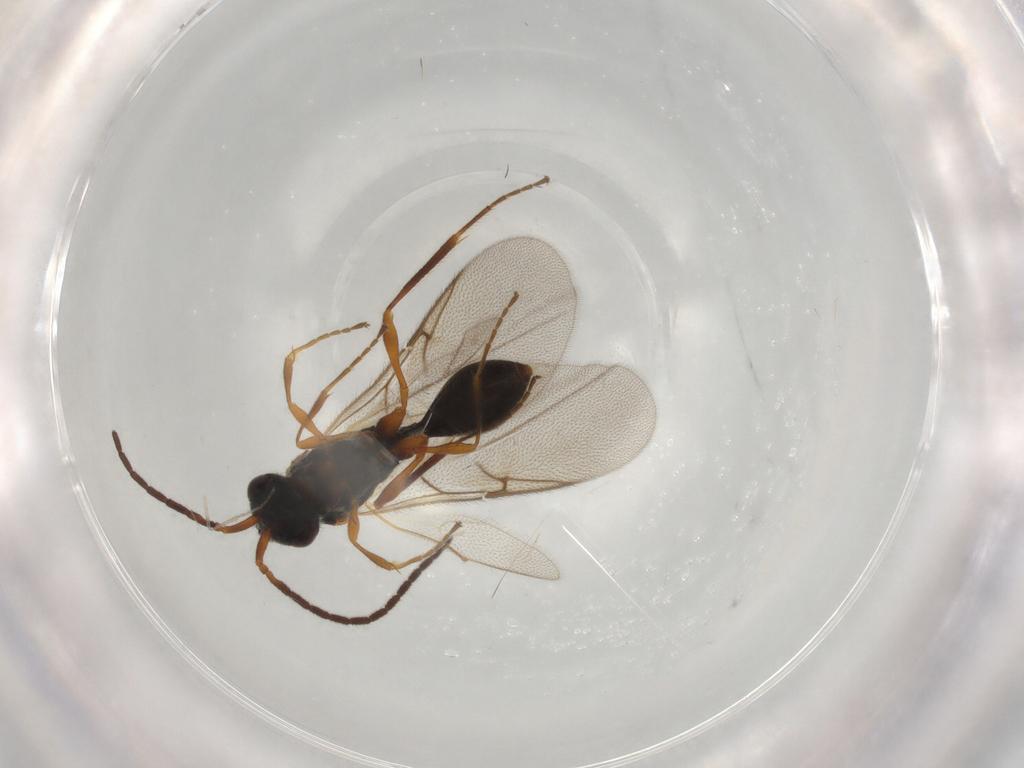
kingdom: Animalia
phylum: Arthropoda
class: Insecta
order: Hymenoptera
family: Diapriidae
